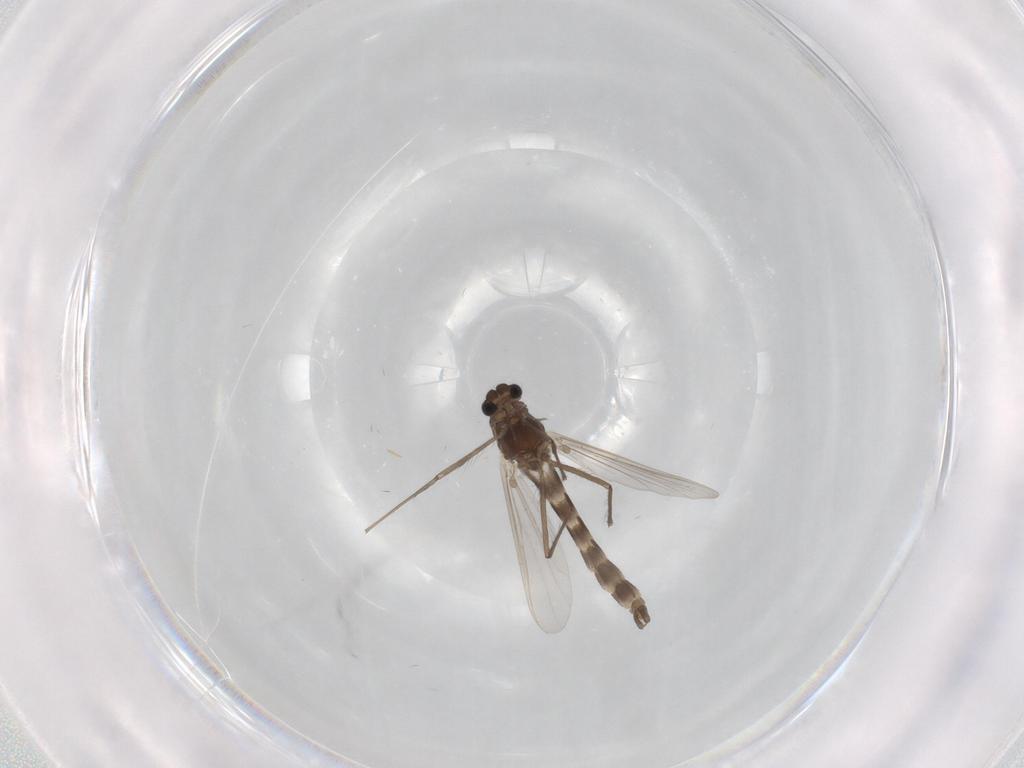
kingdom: Animalia
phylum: Arthropoda
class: Insecta
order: Diptera
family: Chironomidae
